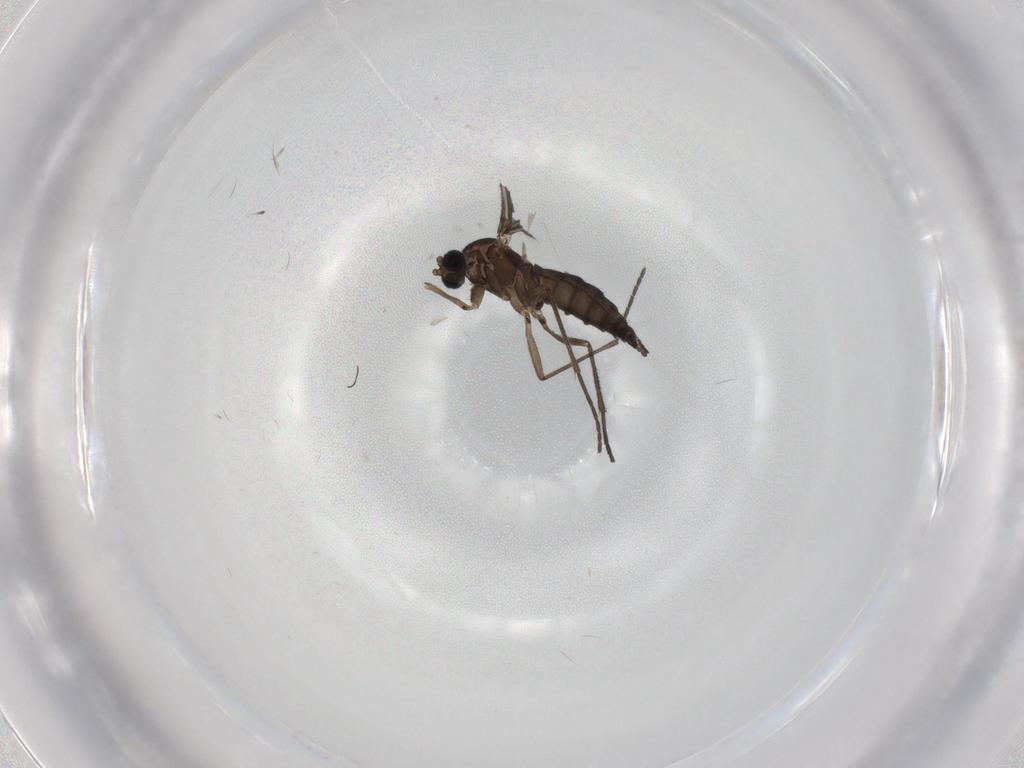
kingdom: Animalia
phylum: Arthropoda
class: Insecta
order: Diptera
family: Sciaridae
